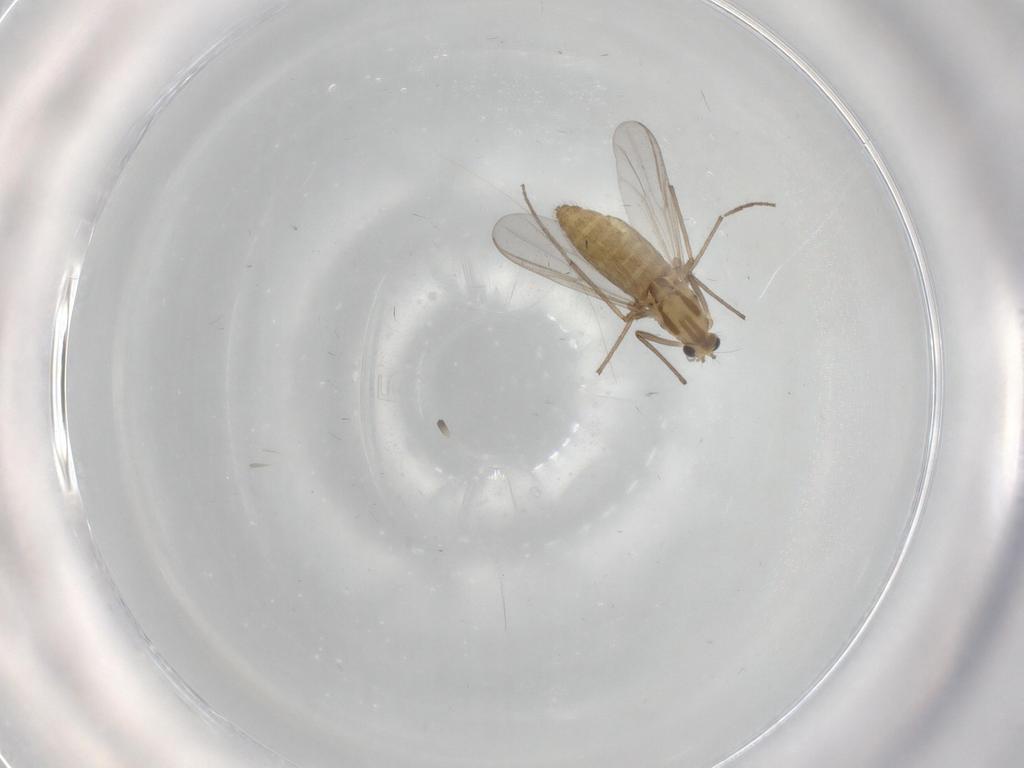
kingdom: Animalia
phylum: Arthropoda
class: Insecta
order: Diptera
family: Chironomidae
